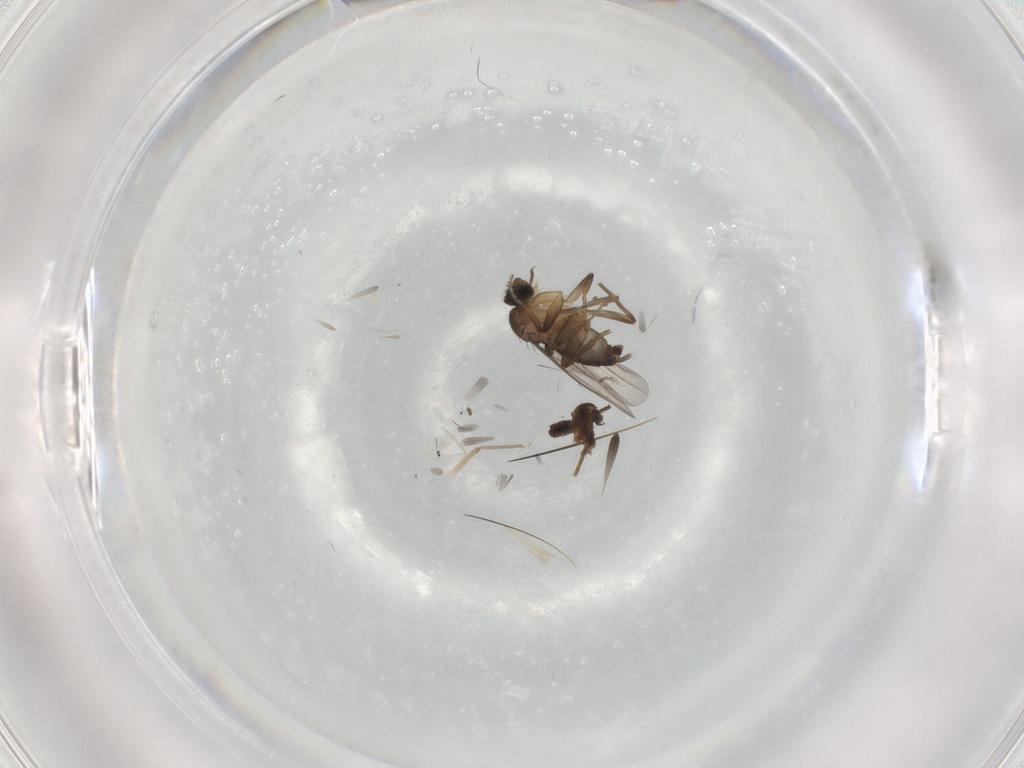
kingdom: Animalia
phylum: Arthropoda
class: Insecta
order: Diptera
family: Phoridae
